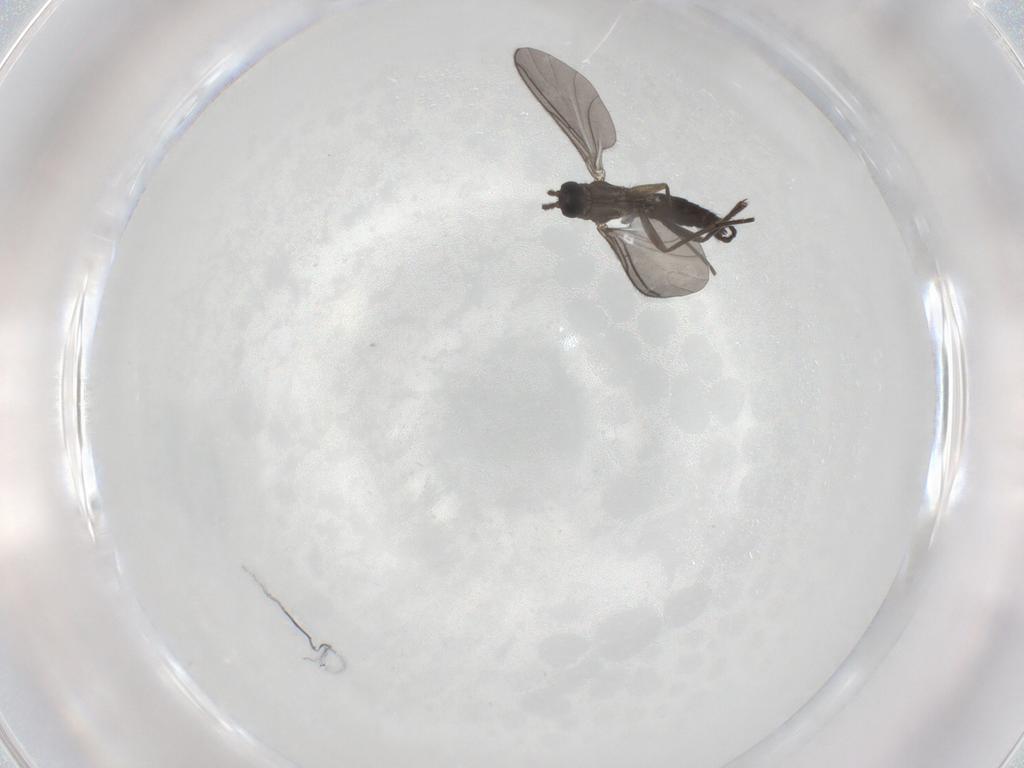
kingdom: Animalia
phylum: Arthropoda
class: Insecta
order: Diptera
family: Sciaridae
